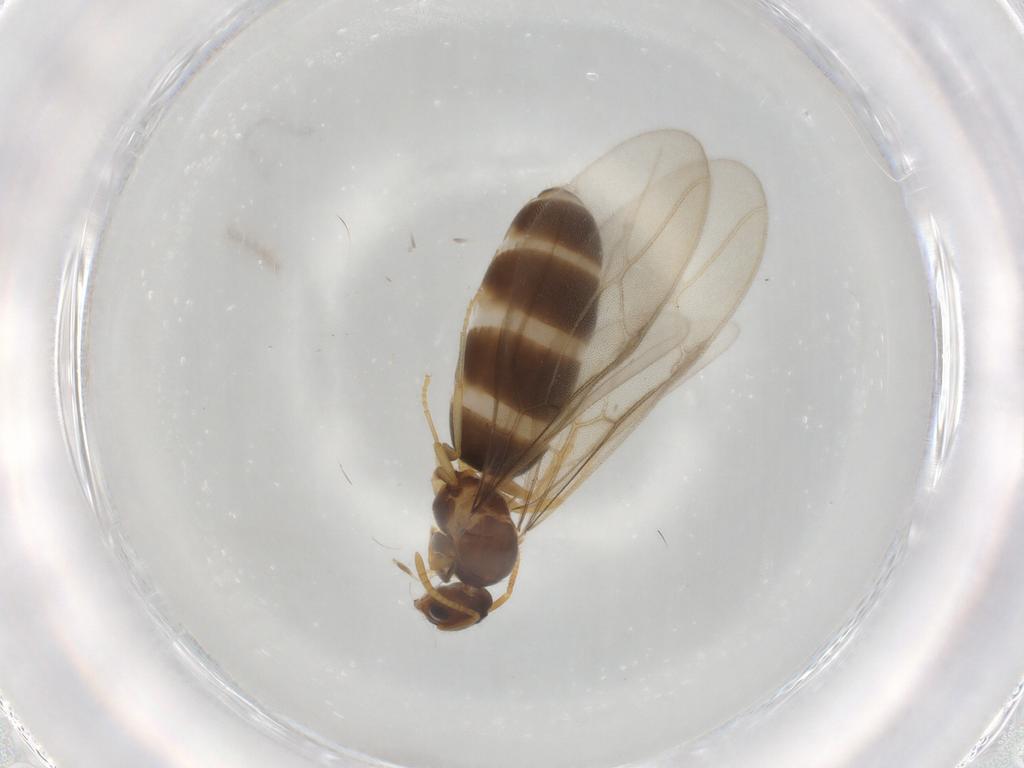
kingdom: Animalia
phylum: Arthropoda
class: Insecta
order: Hymenoptera
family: Formicidae
